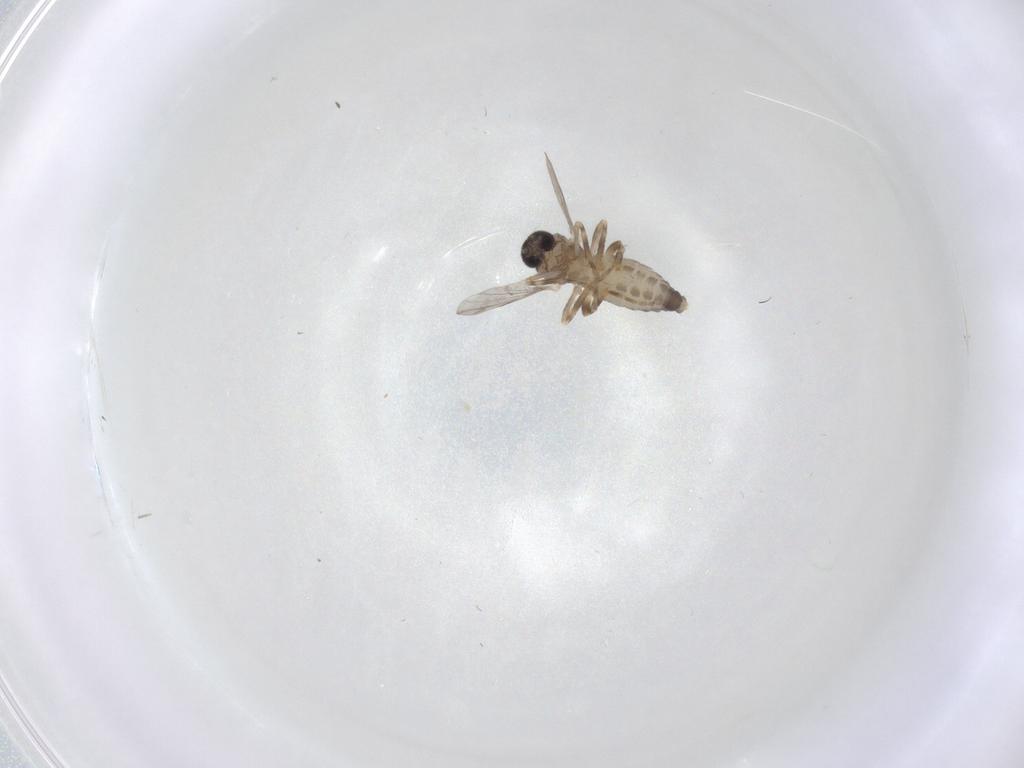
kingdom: Animalia
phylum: Arthropoda
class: Insecta
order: Diptera
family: Ceratopogonidae
